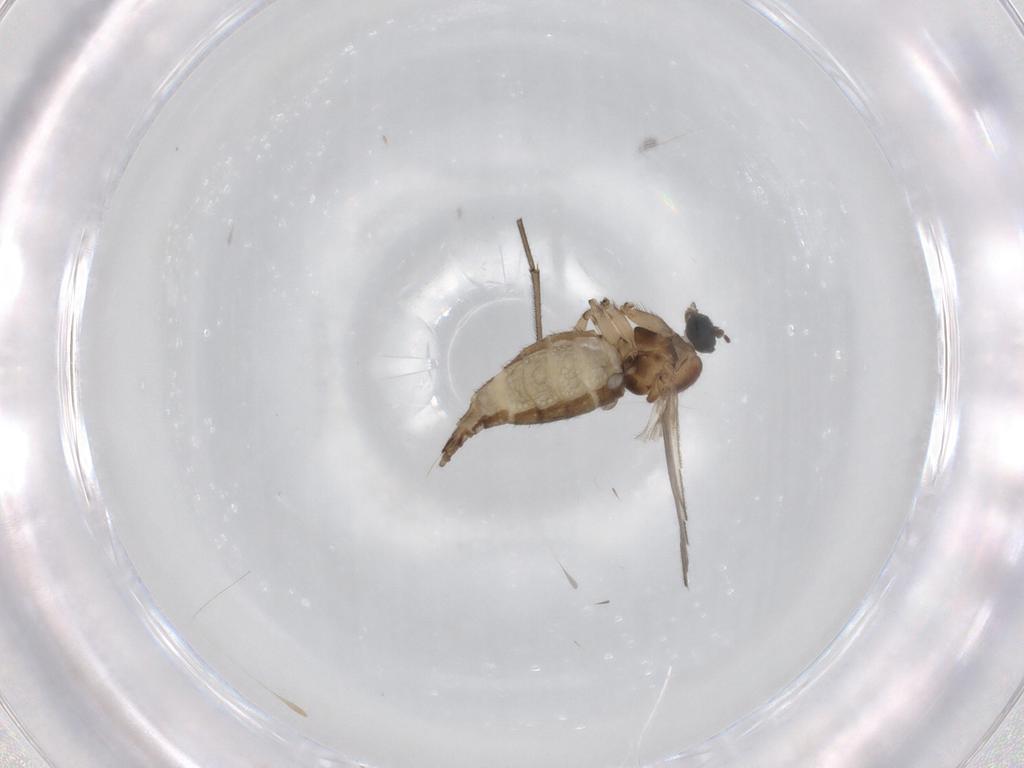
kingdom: Animalia
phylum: Arthropoda
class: Insecta
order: Diptera
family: Sciaridae
